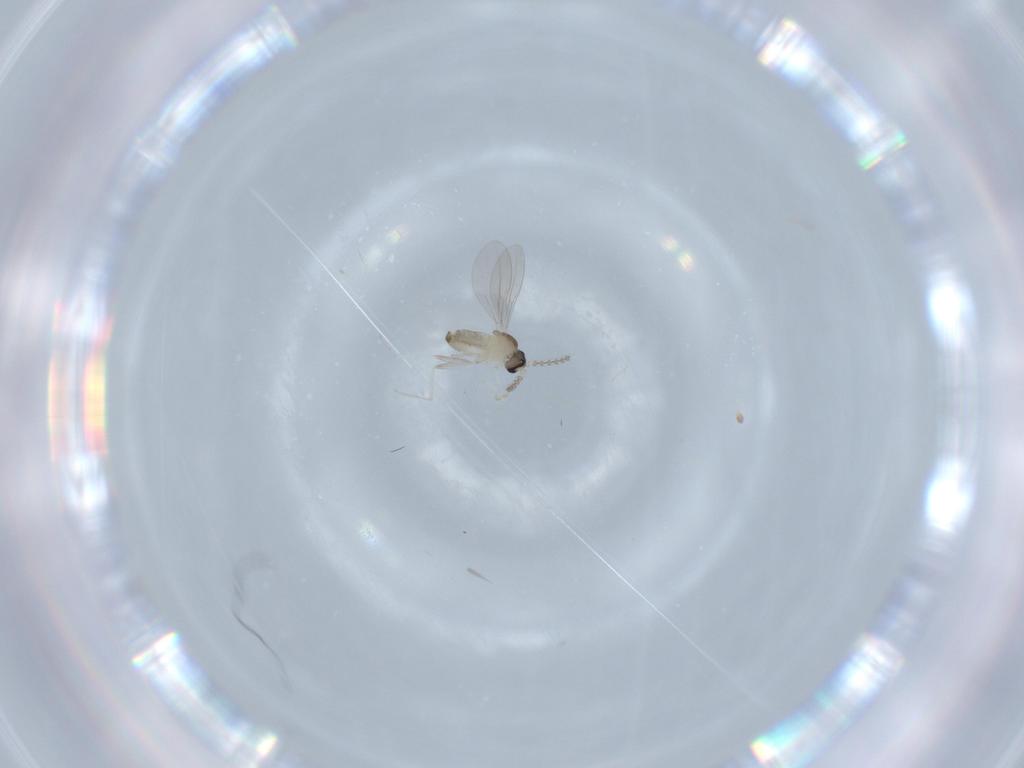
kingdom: Animalia
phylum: Arthropoda
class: Insecta
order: Diptera
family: Cecidomyiidae
